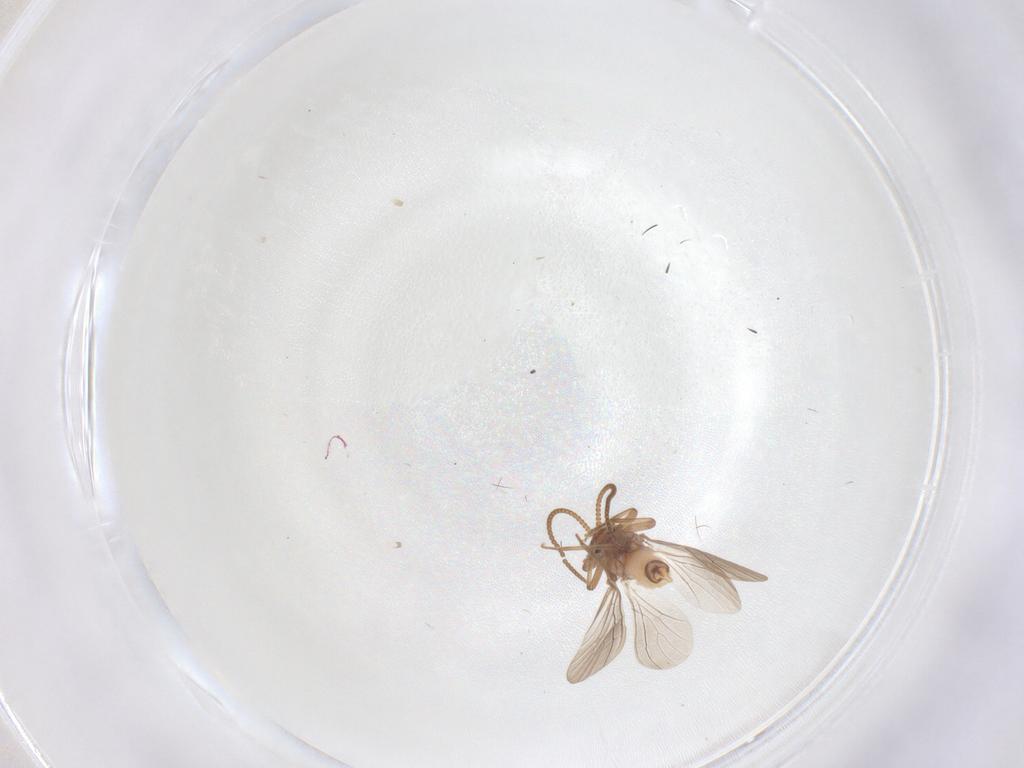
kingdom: Animalia
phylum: Arthropoda
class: Insecta
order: Neuroptera
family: Coniopterygidae
